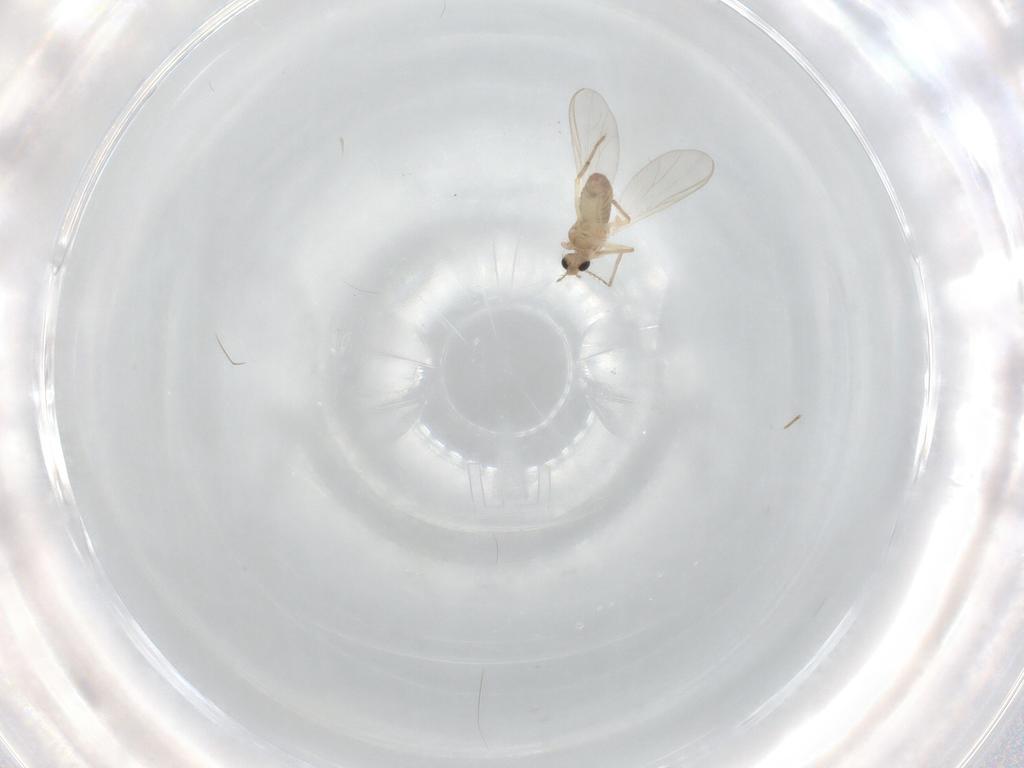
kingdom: Animalia
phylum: Arthropoda
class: Insecta
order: Diptera
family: Chironomidae
